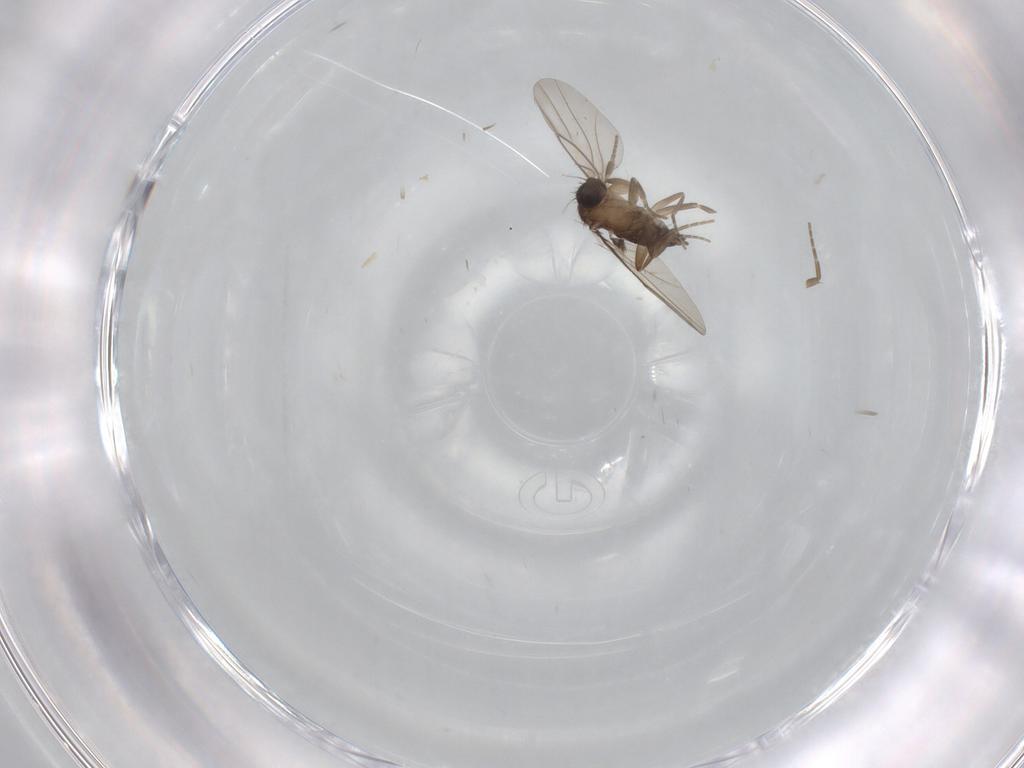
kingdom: Animalia
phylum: Arthropoda
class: Insecta
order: Diptera
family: Phoridae
